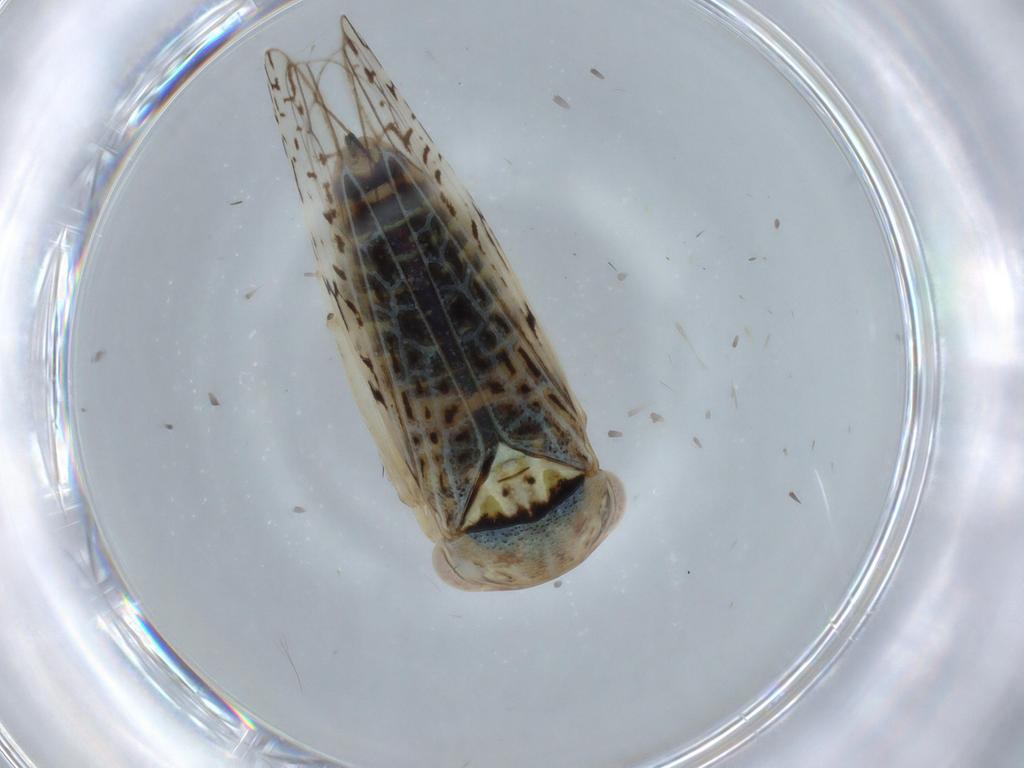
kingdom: Animalia
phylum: Arthropoda
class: Insecta
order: Hemiptera
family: Cicadellidae
